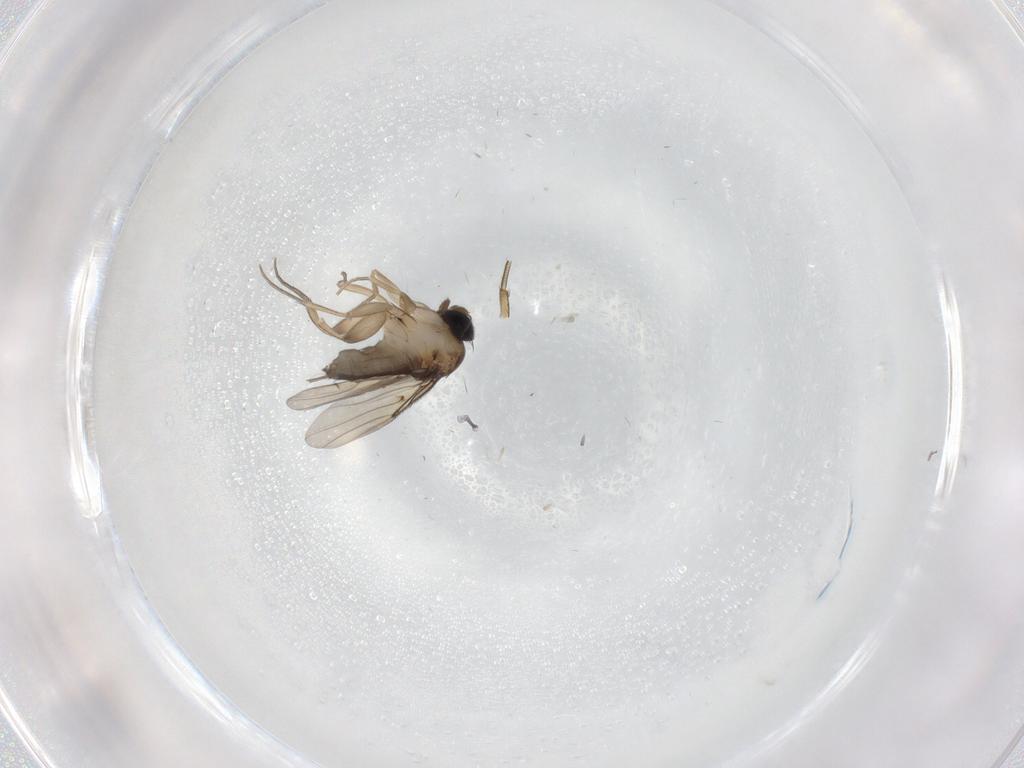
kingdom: Animalia
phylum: Arthropoda
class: Insecta
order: Diptera
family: Phoridae
